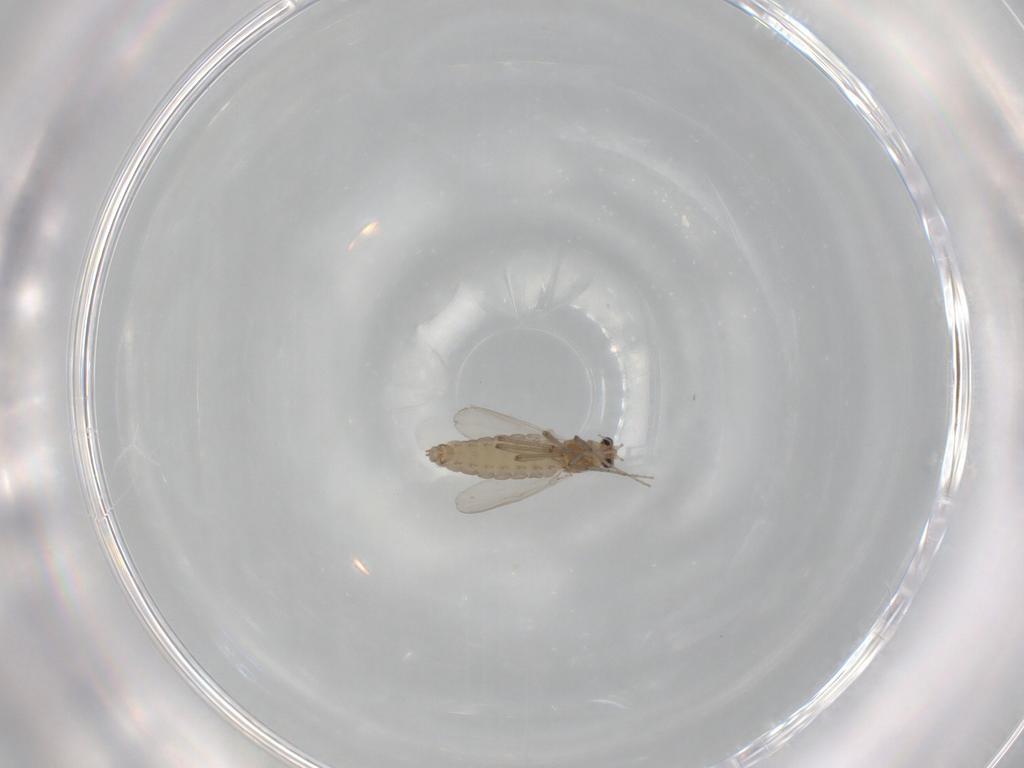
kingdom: Animalia
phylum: Arthropoda
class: Insecta
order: Diptera
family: Chironomidae
